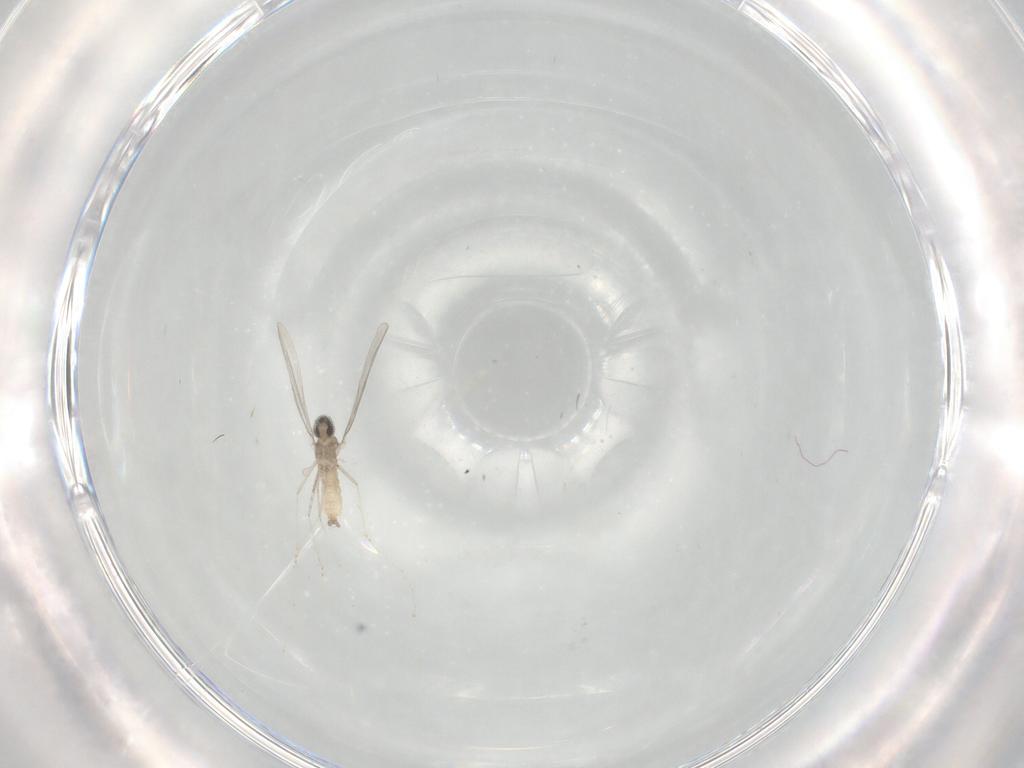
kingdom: Animalia
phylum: Arthropoda
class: Insecta
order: Diptera
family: Cecidomyiidae
